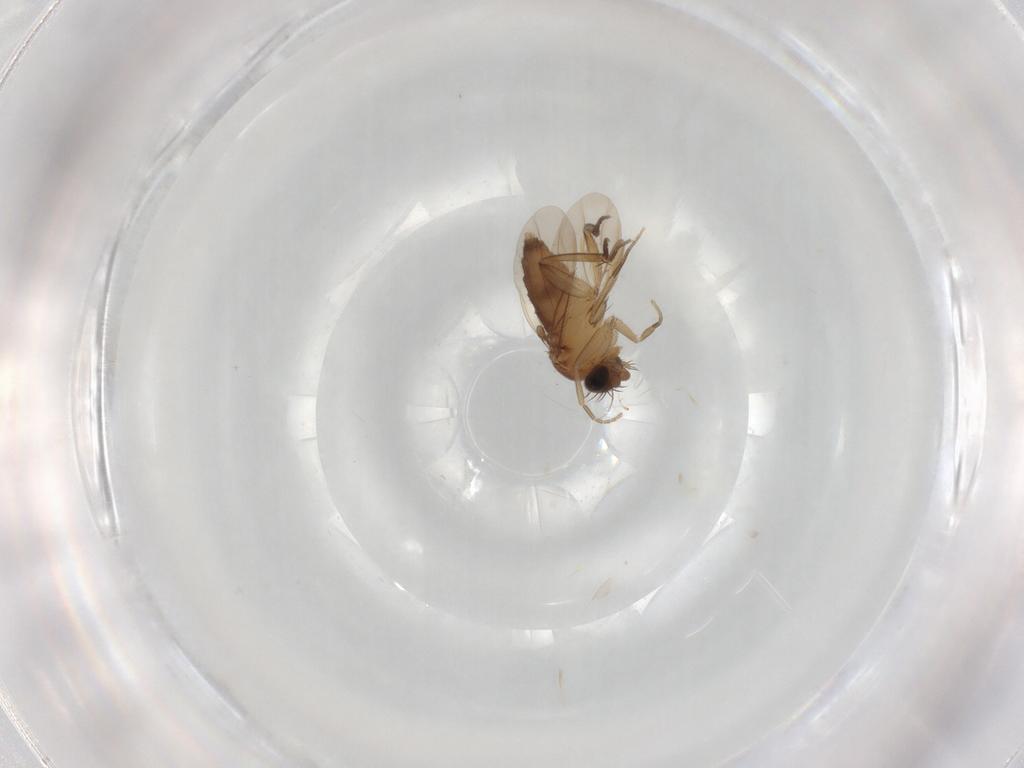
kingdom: Animalia
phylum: Arthropoda
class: Insecta
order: Diptera
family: Phoridae
